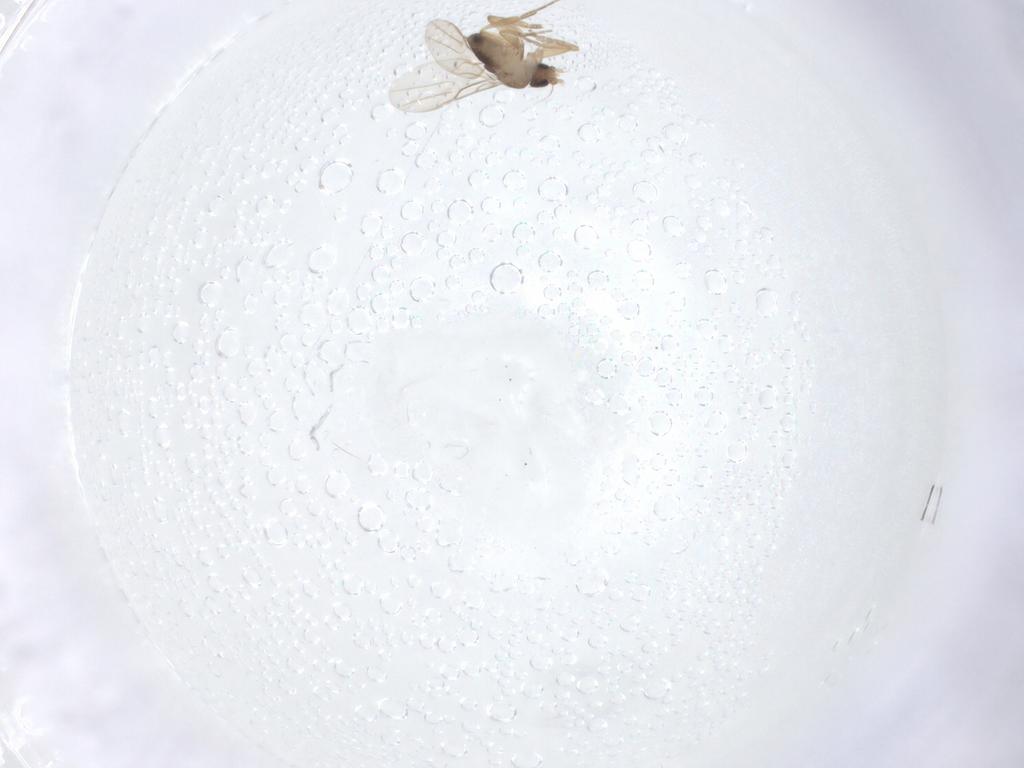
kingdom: Animalia
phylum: Arthropoda
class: Insecta
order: Diptera
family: Phoridae
